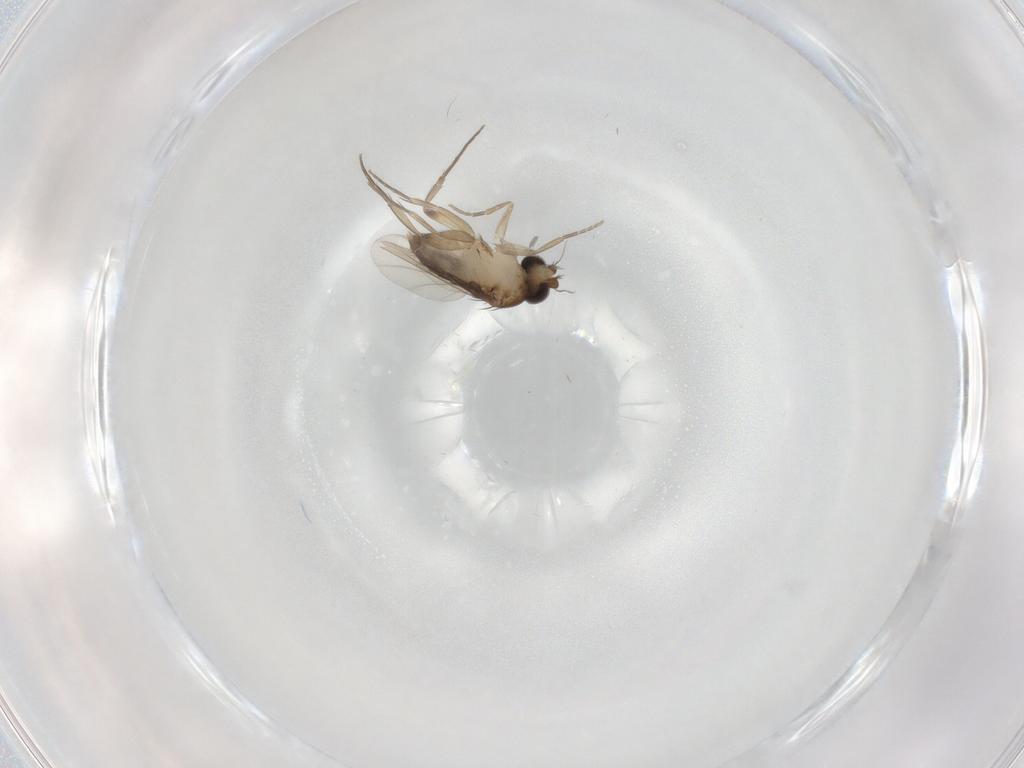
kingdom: Animalia
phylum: Arthropoda
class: Insecta
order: Diptera
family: Phoridae
